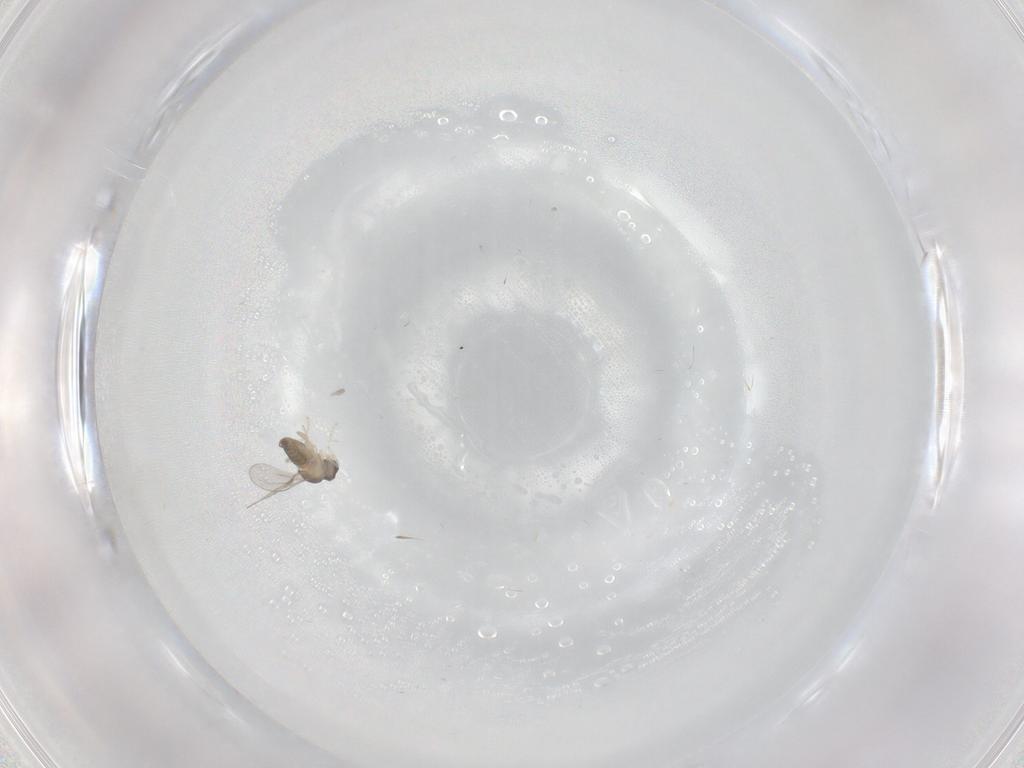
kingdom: Animalia
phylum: Arthropoda
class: Insecta
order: Diptera
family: Cecidomyiidae
